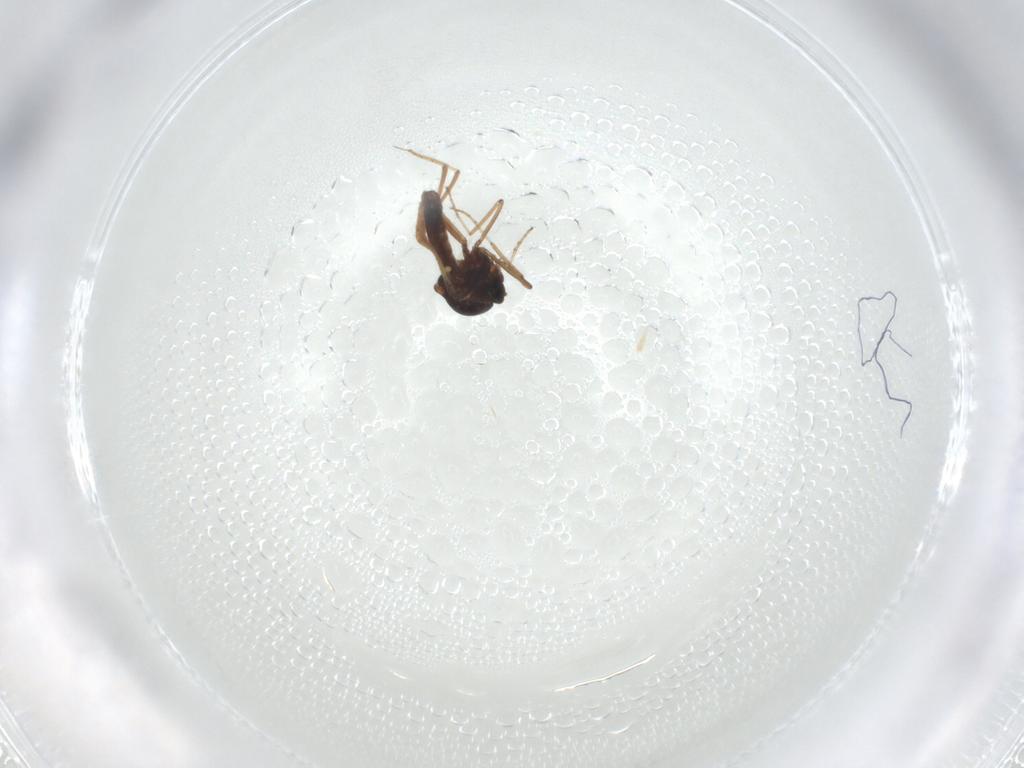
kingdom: Animalia
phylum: Arthropoda
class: Insecta
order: Diptera
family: Ceratopogonidae
